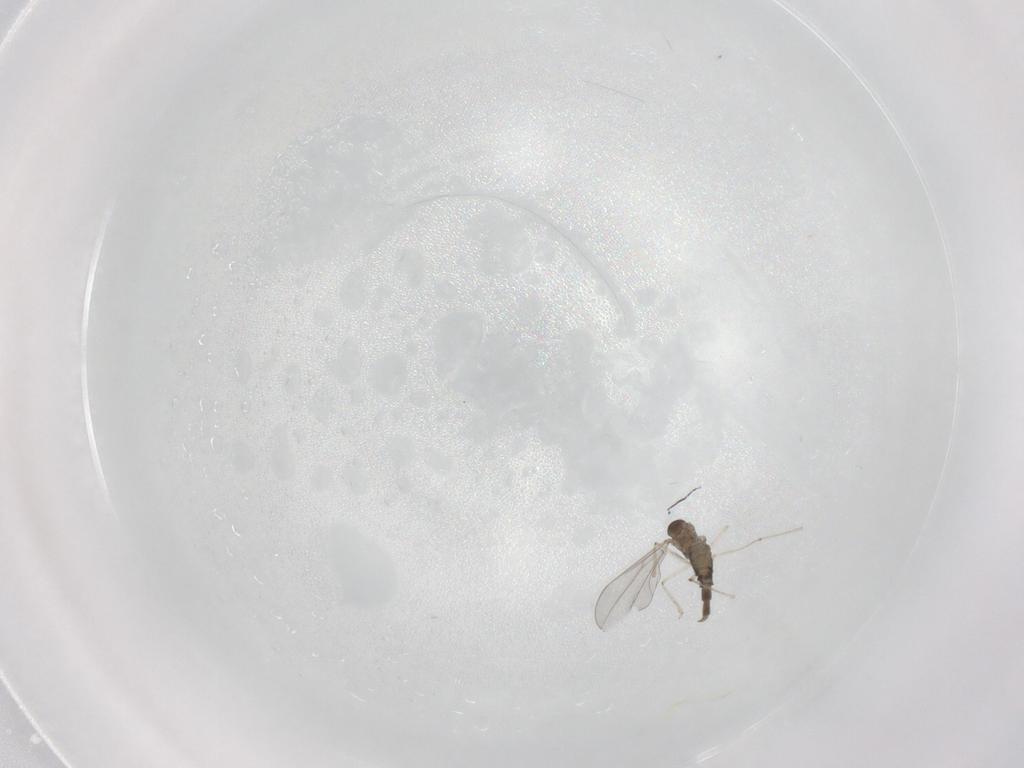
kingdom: Animalia
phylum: Arthropoda
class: Insecta
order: Diptera
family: Cecidomyiidae
